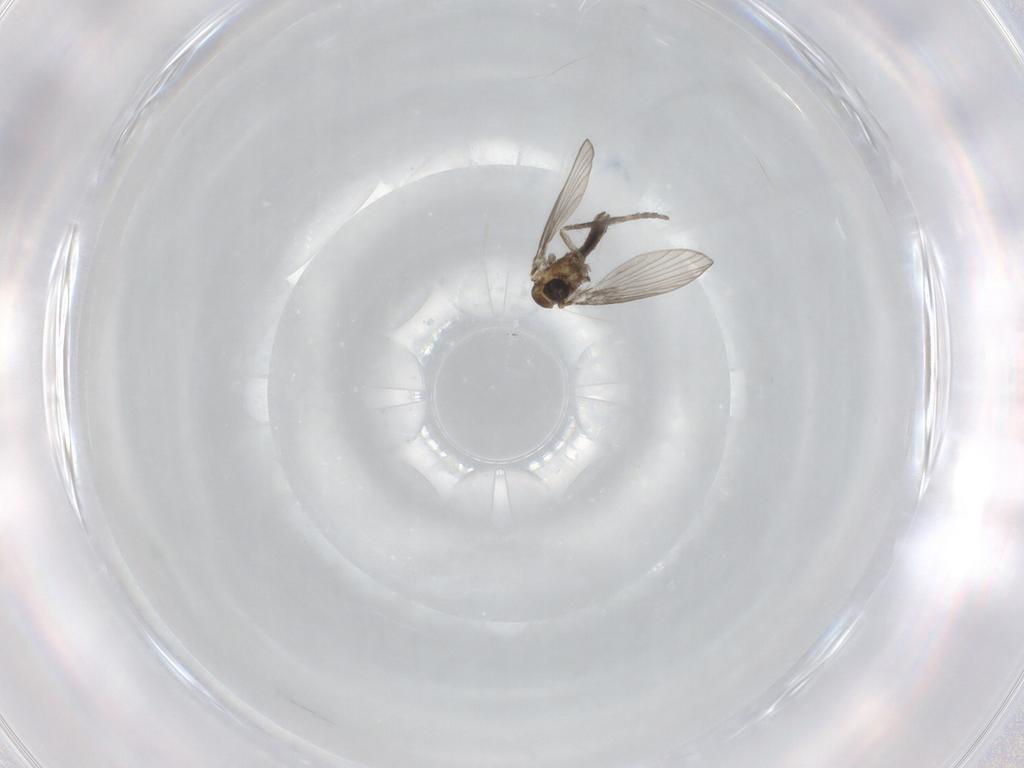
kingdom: Animalia
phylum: Arthropoda
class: Insecta
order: Diptera
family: Psychodidae
